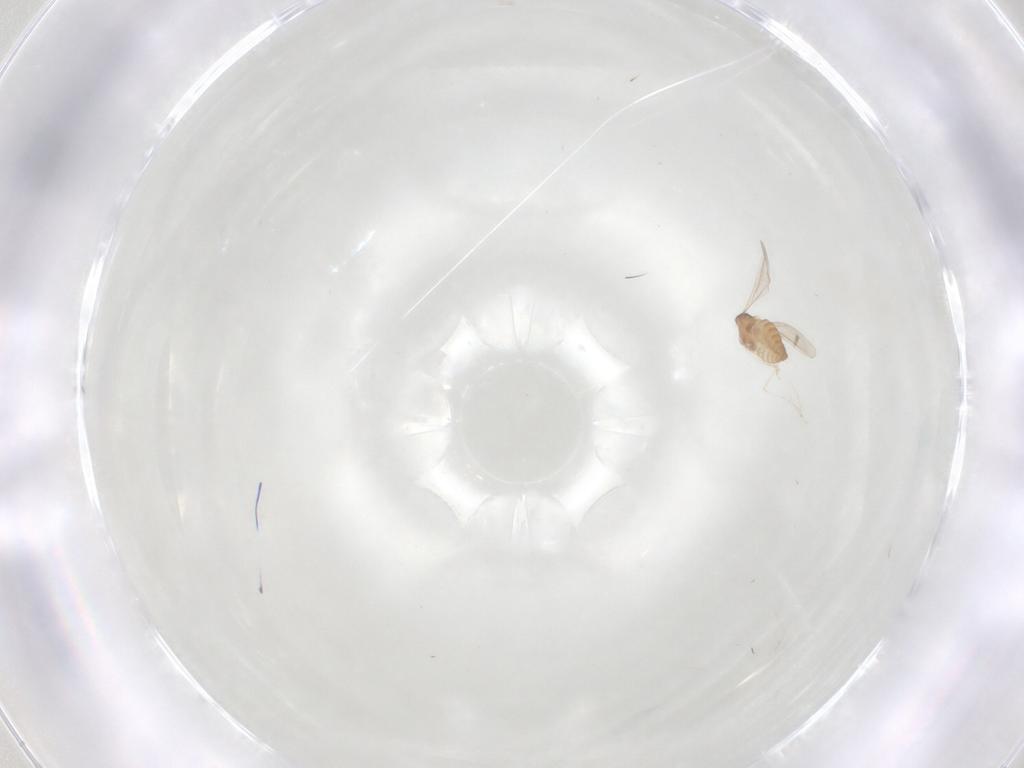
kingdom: Animalia
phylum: Arthropoda
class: Insecta
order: Diptera
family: Cecidomyiidae
